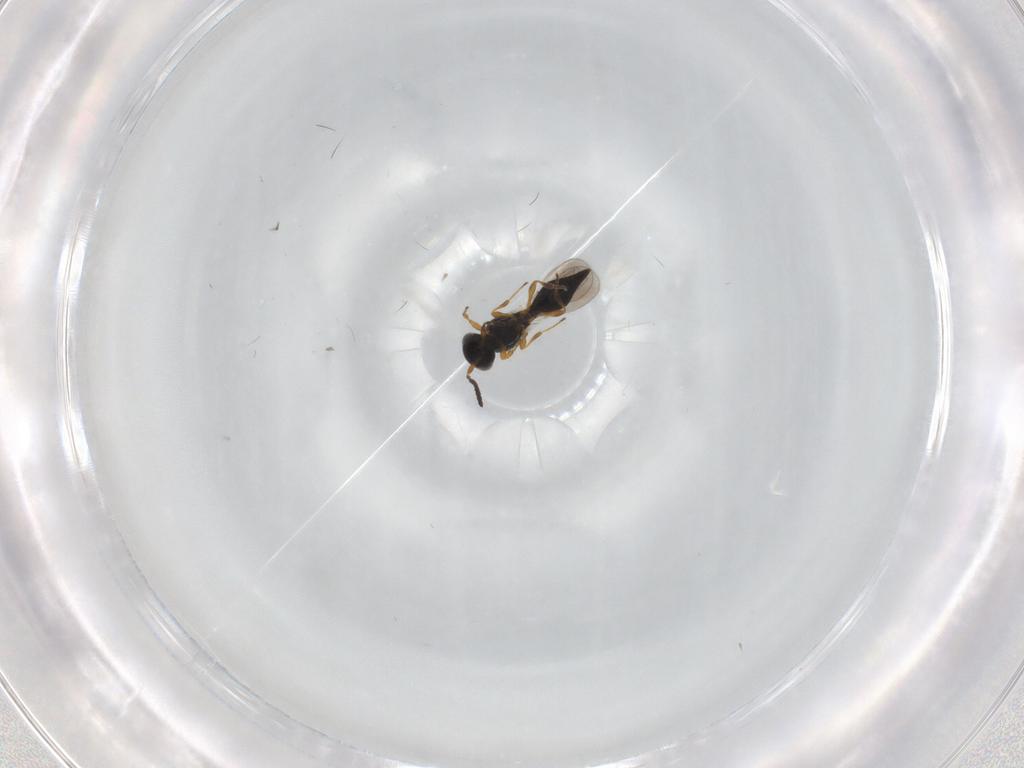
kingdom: Animalia
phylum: Arthropoda
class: Insecta
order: Hymenoptera
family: Platygastridae
